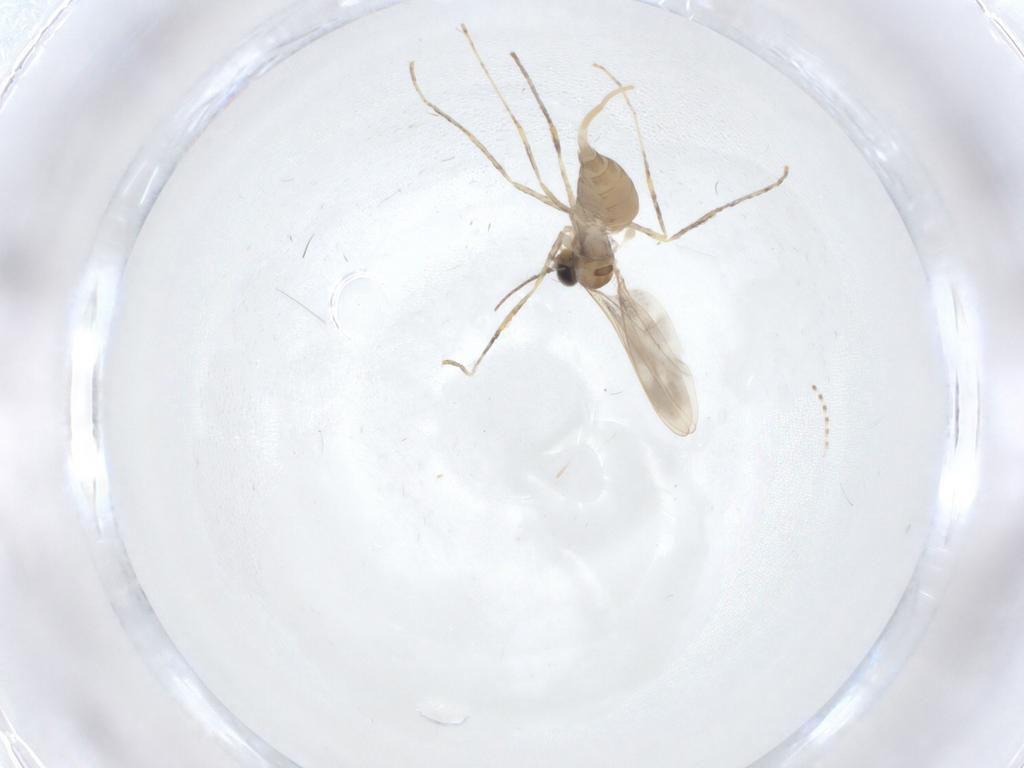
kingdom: Animalia
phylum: Arthropoda
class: Insecta
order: Diptera
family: Cecidomyiidae
